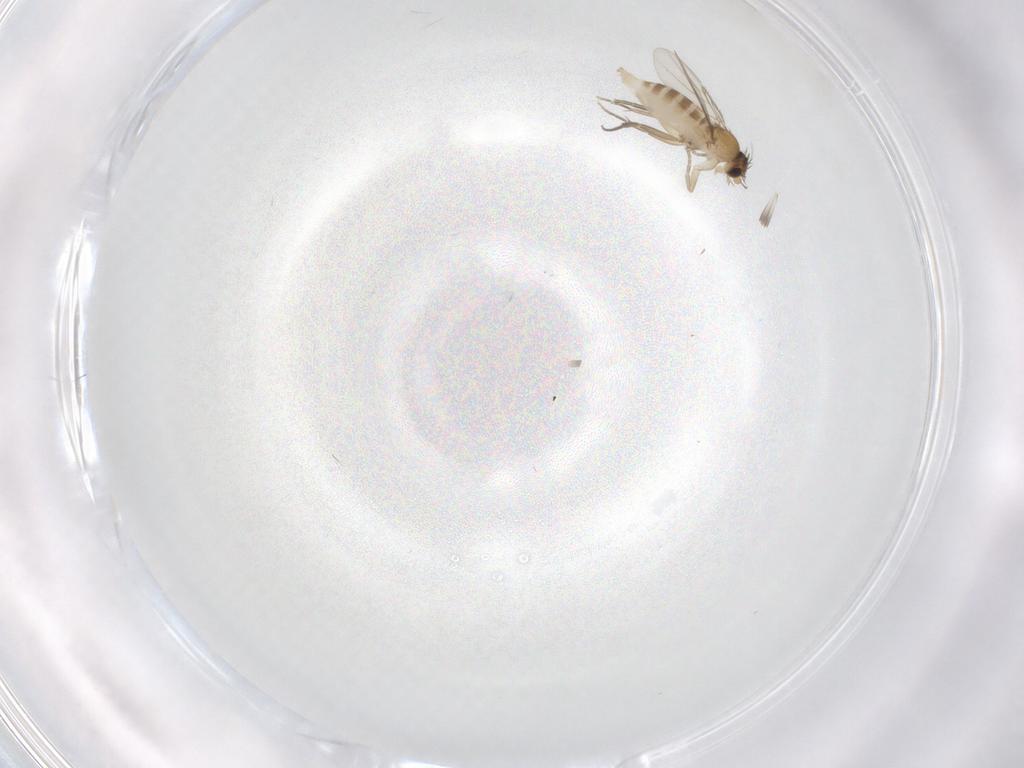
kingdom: Animalia
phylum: Arthropoda
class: Insecta
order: Diptera
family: Phoridae
